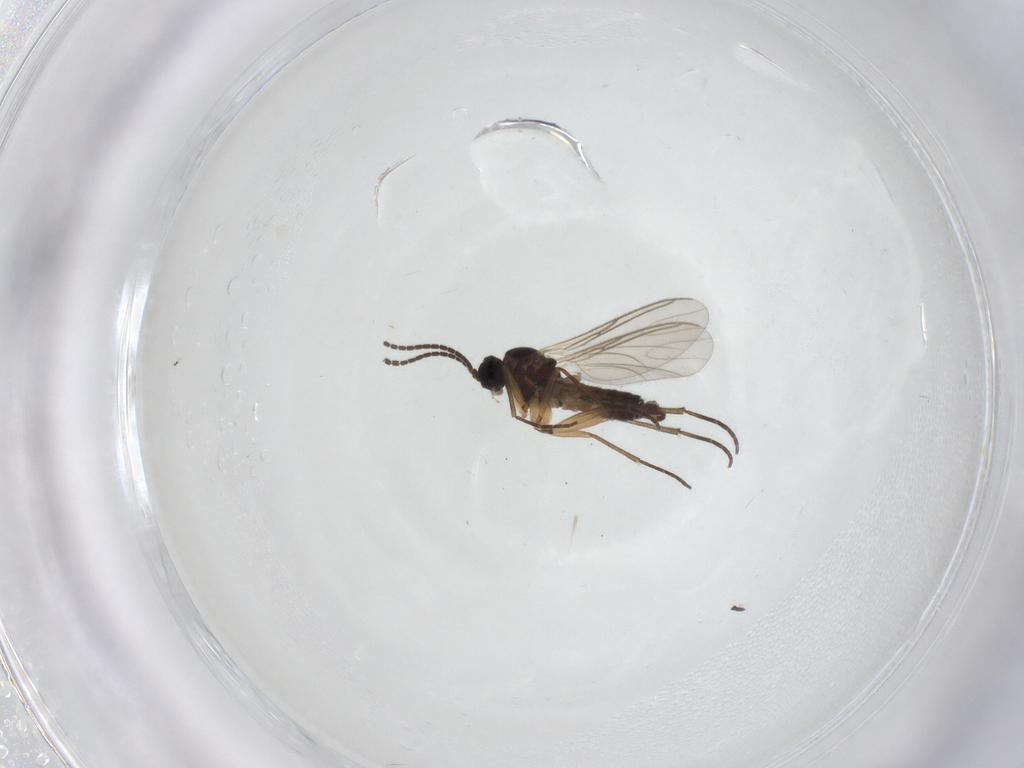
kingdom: Animalia
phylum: Arthropoda
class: Insecta
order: Diptera
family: Sciaridae
